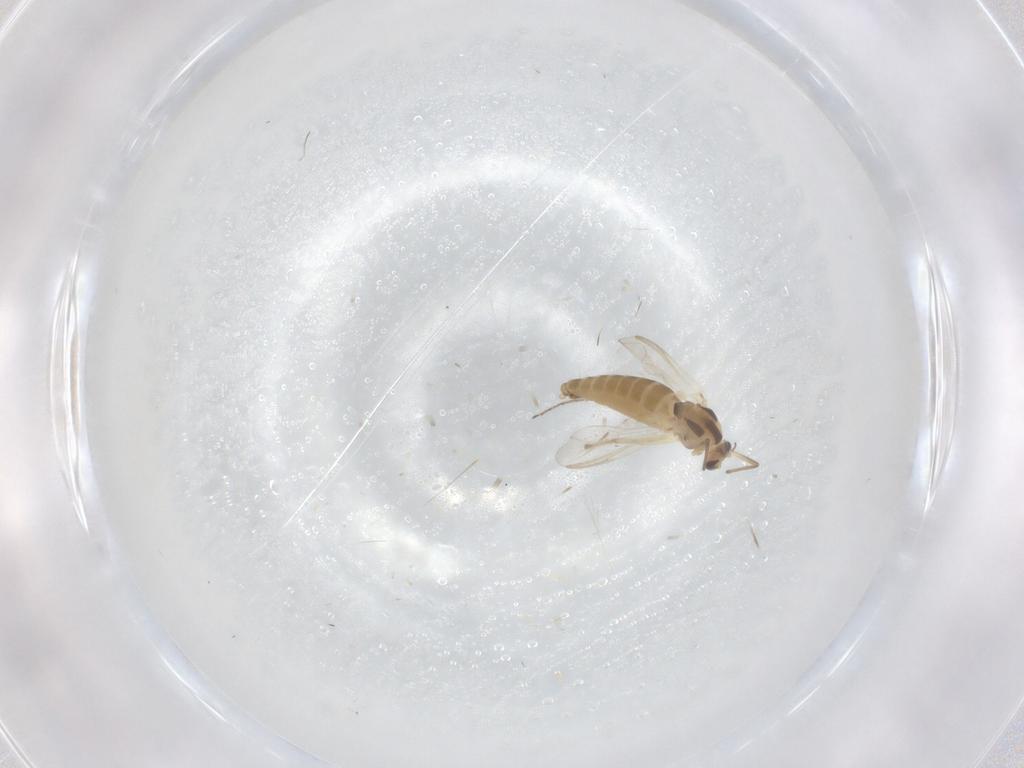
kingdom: Animalia
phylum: Arthropoda
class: Insecta
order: Diptera
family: Chironomidae
